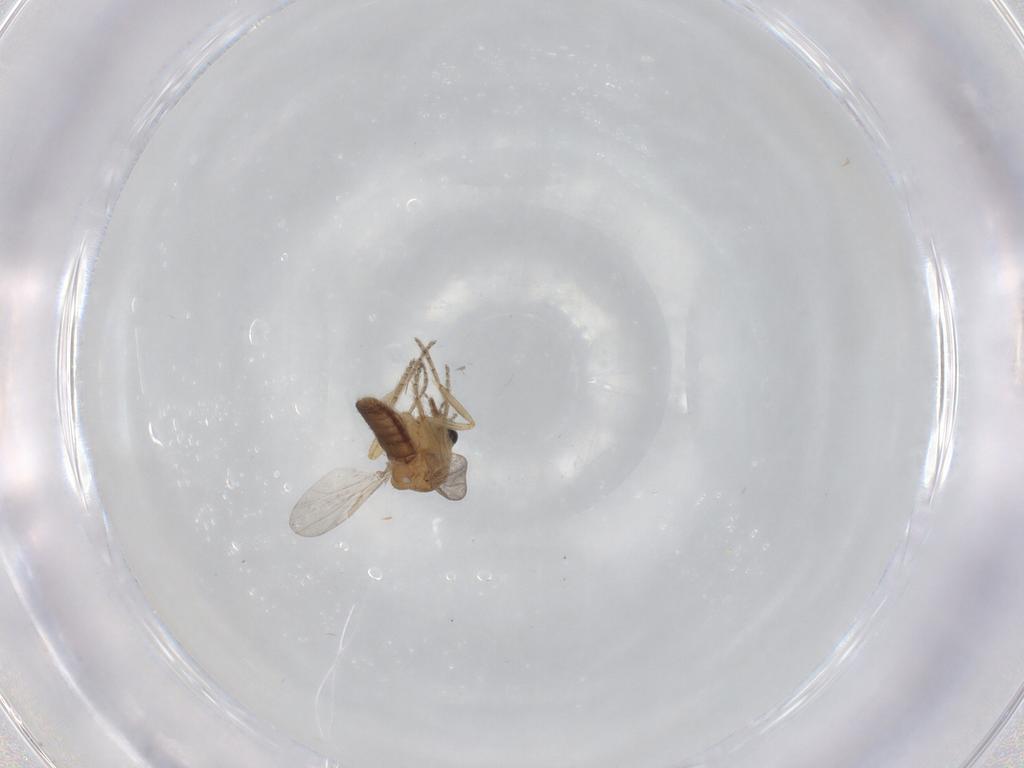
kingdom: Animalia
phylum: Arthropoda
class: Insecta
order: Diptera
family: Ceratopogonidae
